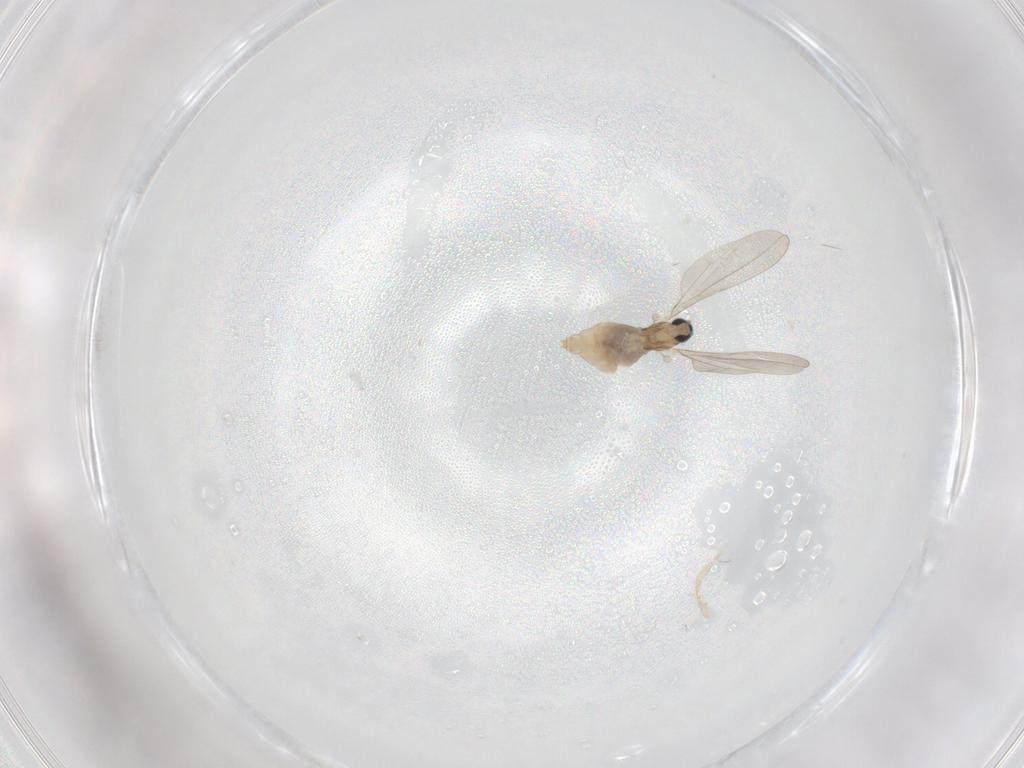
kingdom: Animalia
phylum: Arthropoda
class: Insecta
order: Diptera
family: Cecidomyiidae
